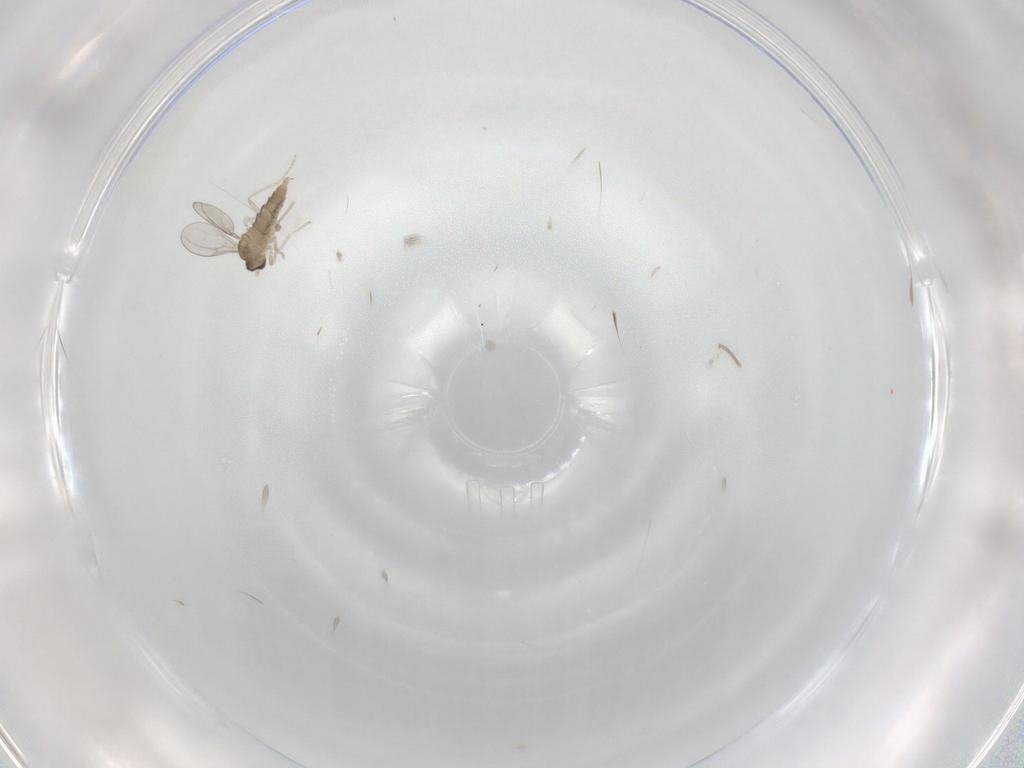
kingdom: Animalia
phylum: Arthropoda
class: Insecta
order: Diptera
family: Cecidomyiidae
